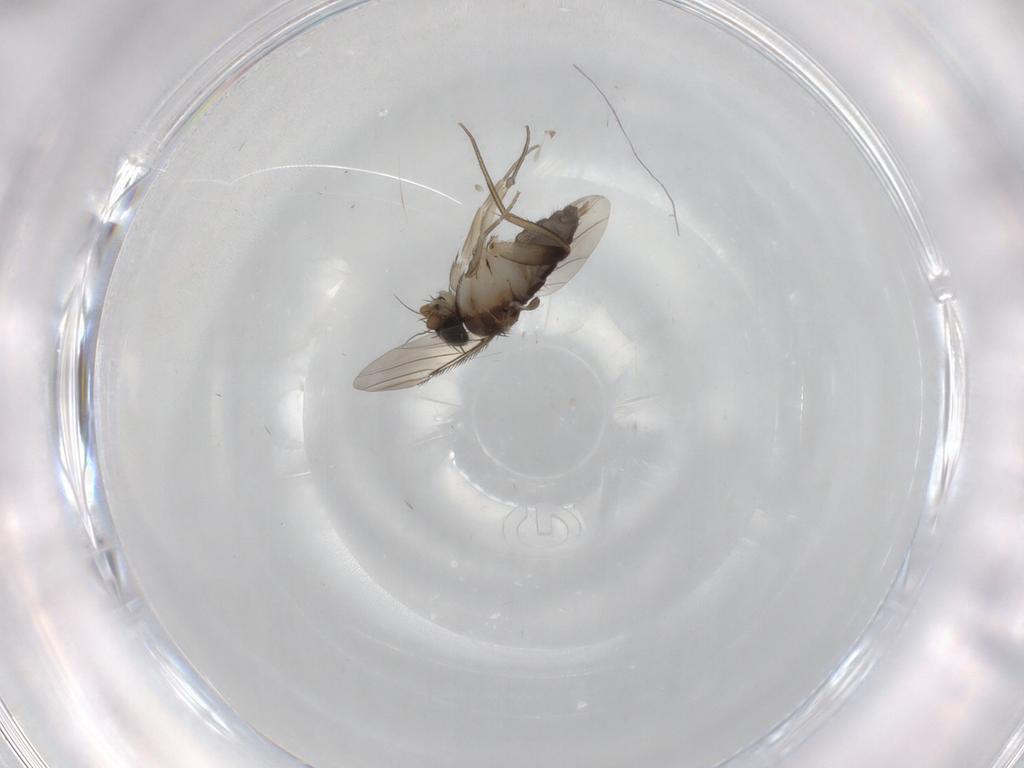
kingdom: Animalia
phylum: Arthropoda
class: Insecta
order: Diptera
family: Phoridae
